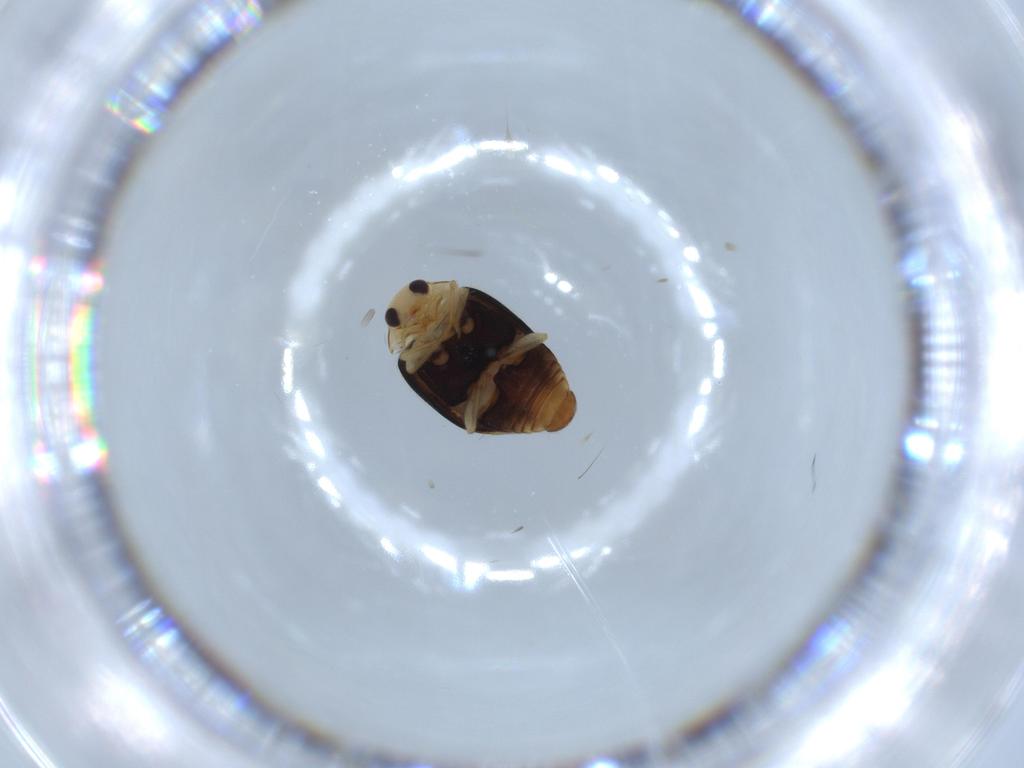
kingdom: Animalia
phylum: Arthropoda
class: Insecta
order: Coleoptera
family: Coccinellidae
